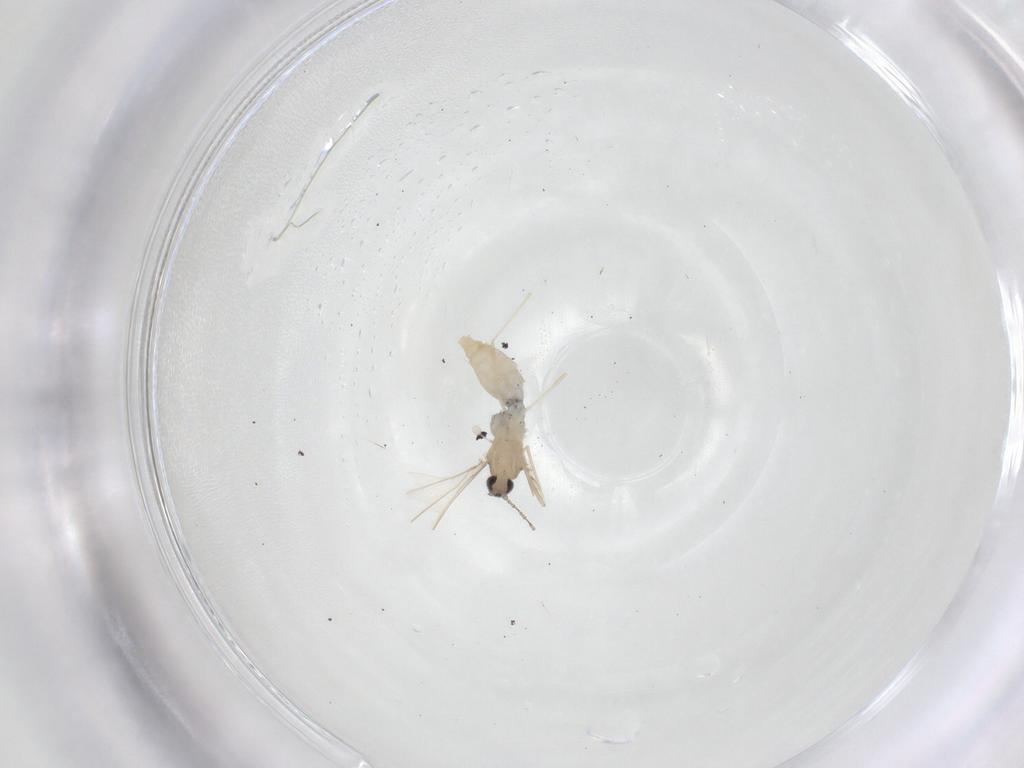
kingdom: Animalia
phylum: Arthropoda
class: Insecta
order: Diptera
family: Cecidomyiidae
